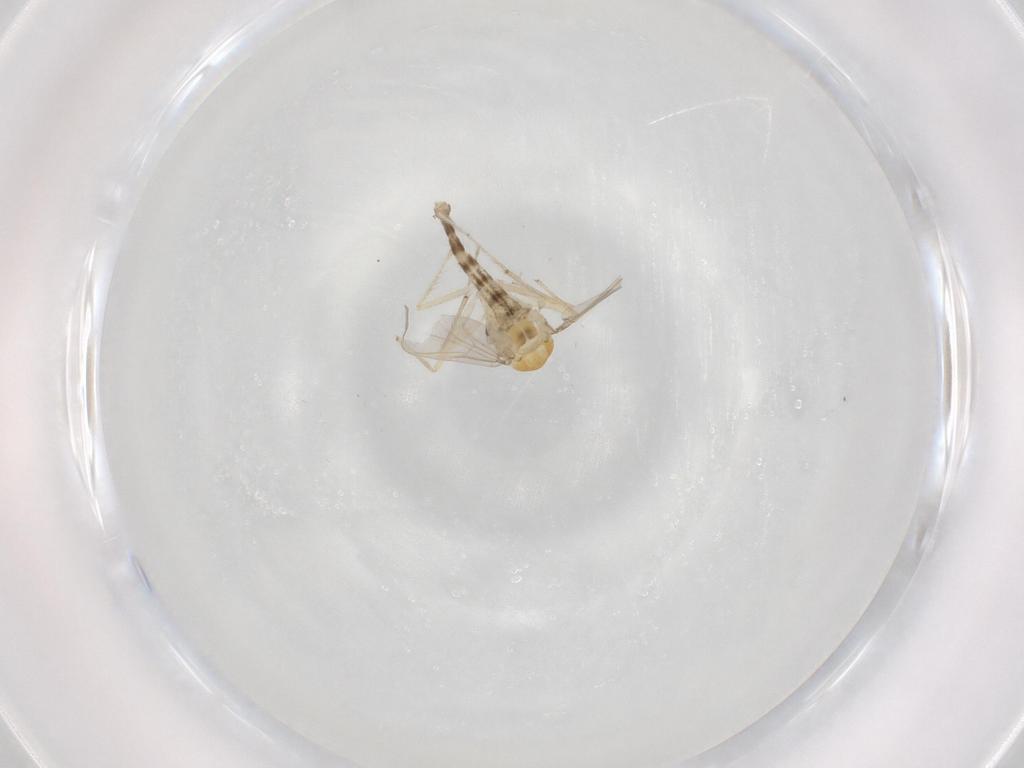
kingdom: Animalia
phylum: Arthropoda
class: Insecta
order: Diptera
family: Chironomidae
